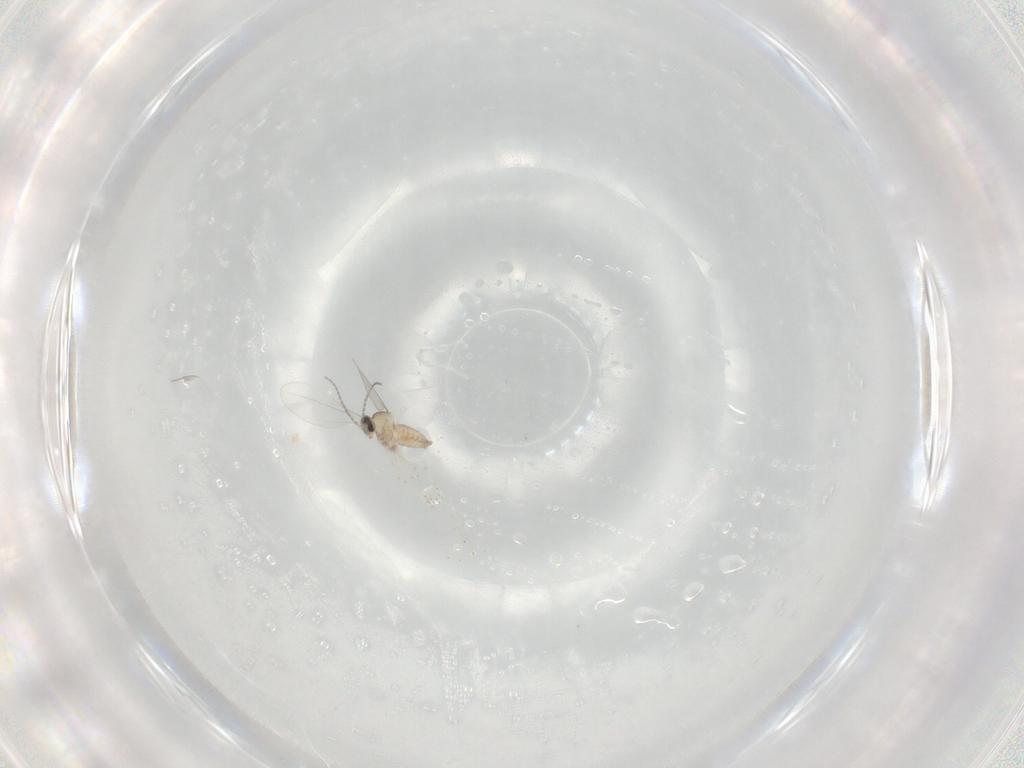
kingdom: Animalia
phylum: Arthropoda
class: Insecta
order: Diptera
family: Cecidomyiidae
